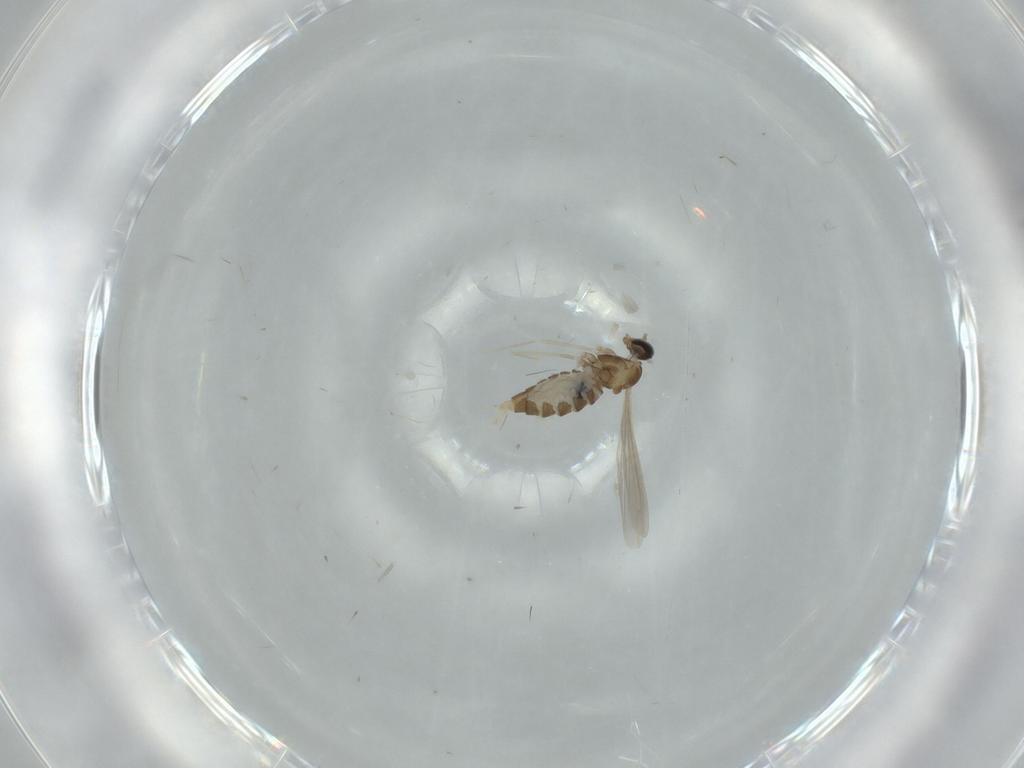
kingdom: Animalia
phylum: Arthropoda
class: Insecta
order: Diptera
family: Cecidomyiidae
